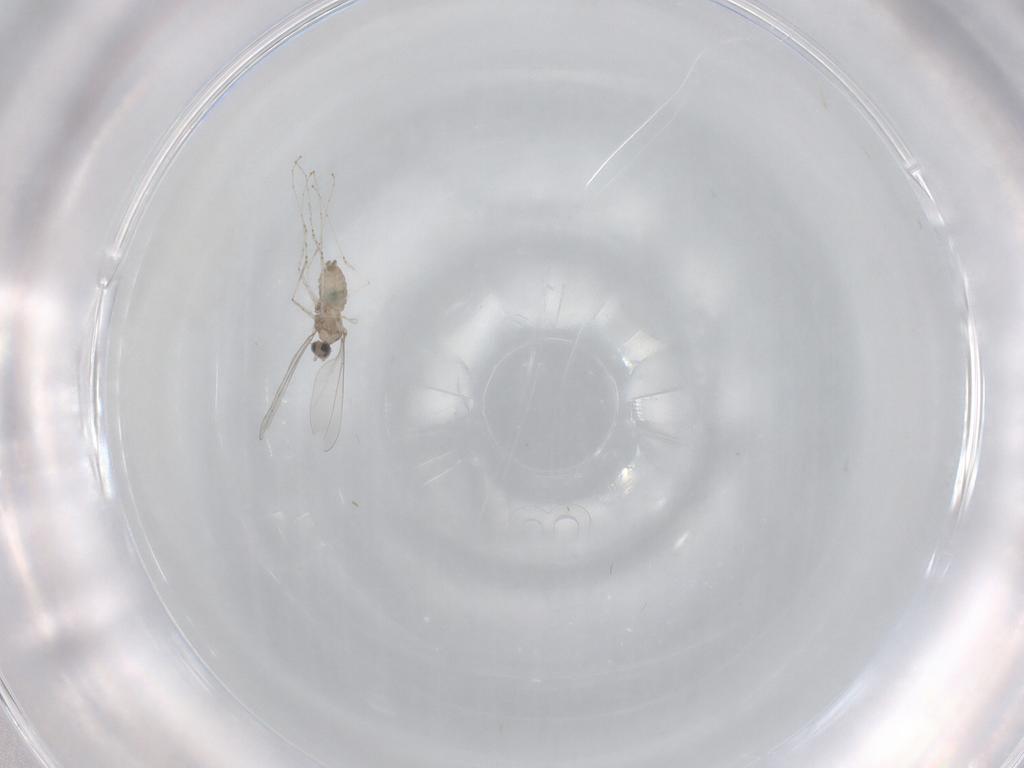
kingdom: Animalia
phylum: Arthropoda
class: Insecta
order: Diptera
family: Cecidomyiidae
